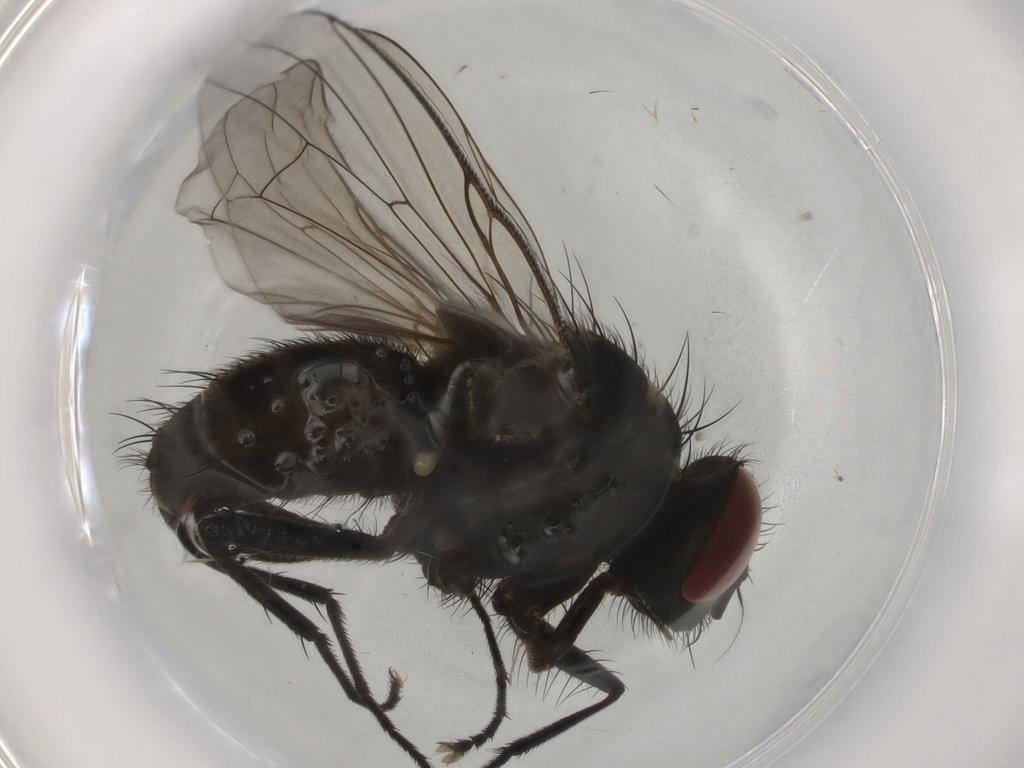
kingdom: Animalia
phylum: Arthropoda
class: Insecta
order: Diptera
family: Muscidae
